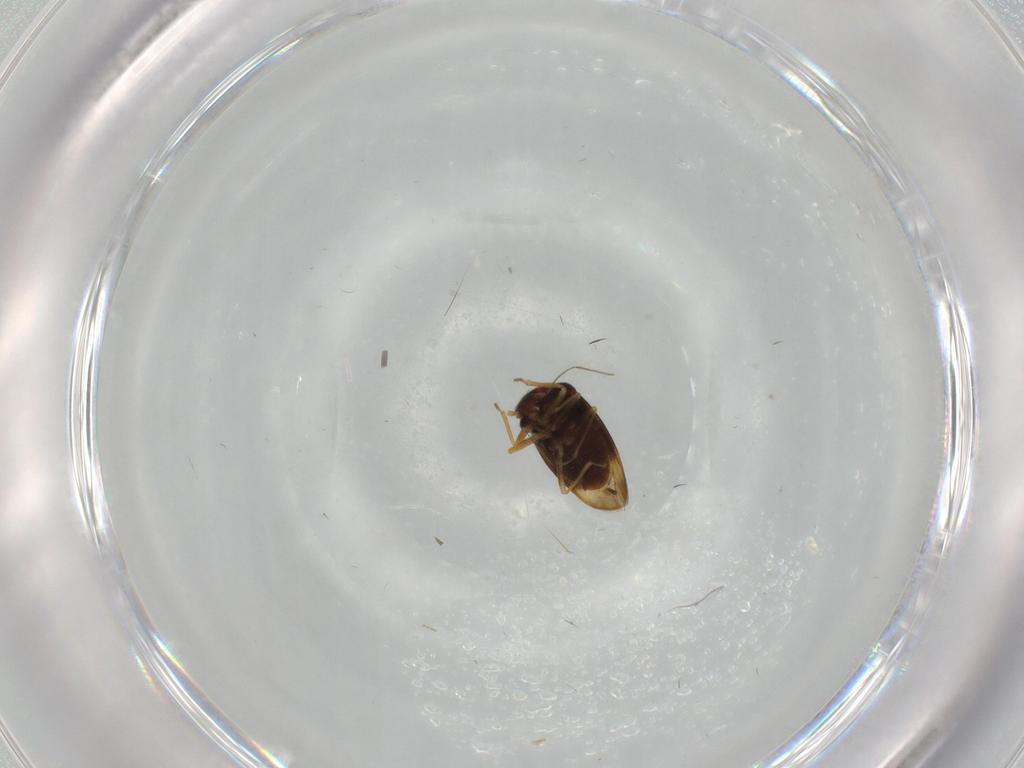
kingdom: Animalia
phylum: Arthropoda
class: Insecta
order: Hemiptera
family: Schizopteridae
